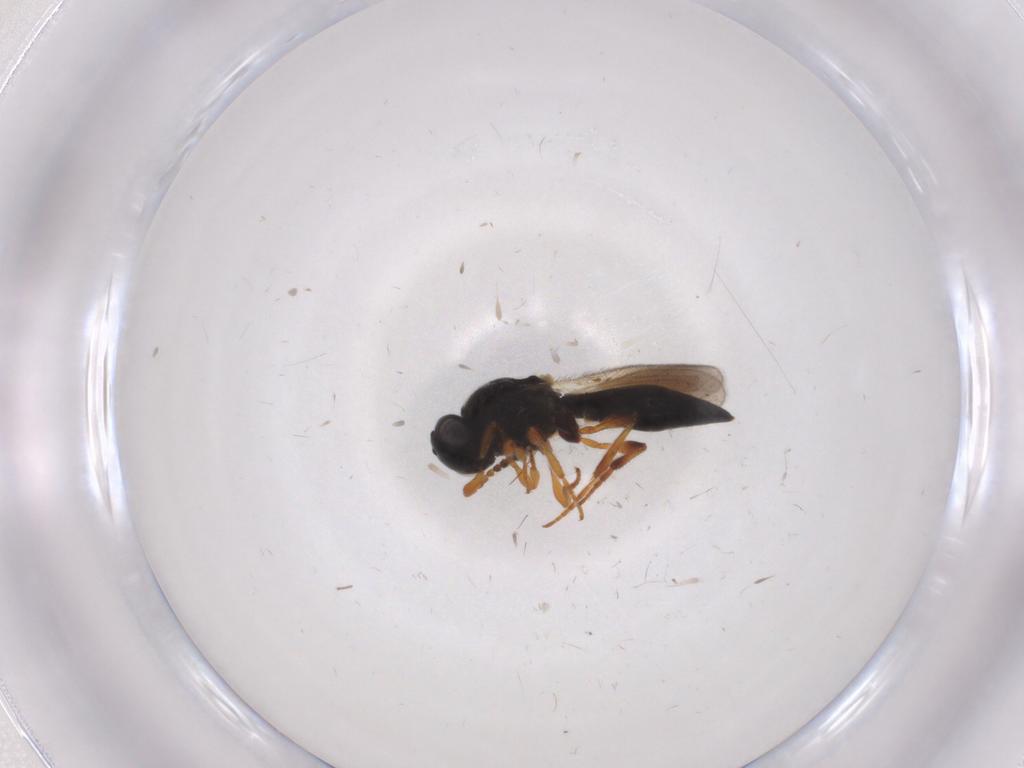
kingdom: Animalia
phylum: Arthropoda
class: Insecta
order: Hymenoptera
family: Platygastridae
